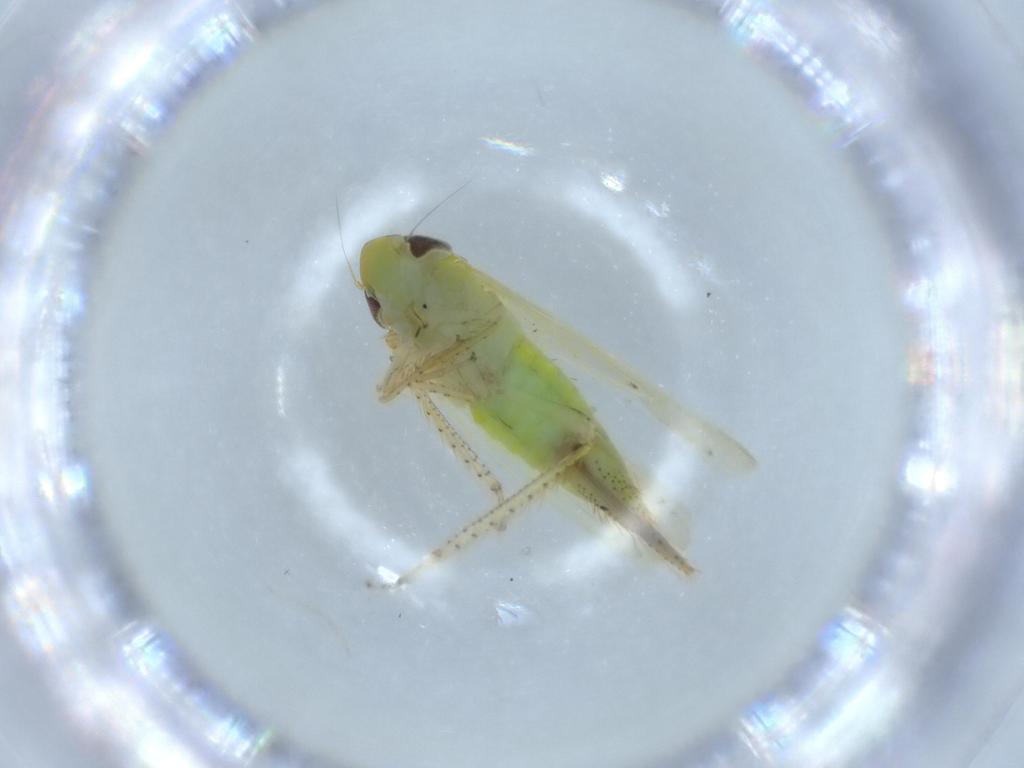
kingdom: Animalia
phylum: Arthropoda
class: Insecta
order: Hemiptera
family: Cicadellidae
